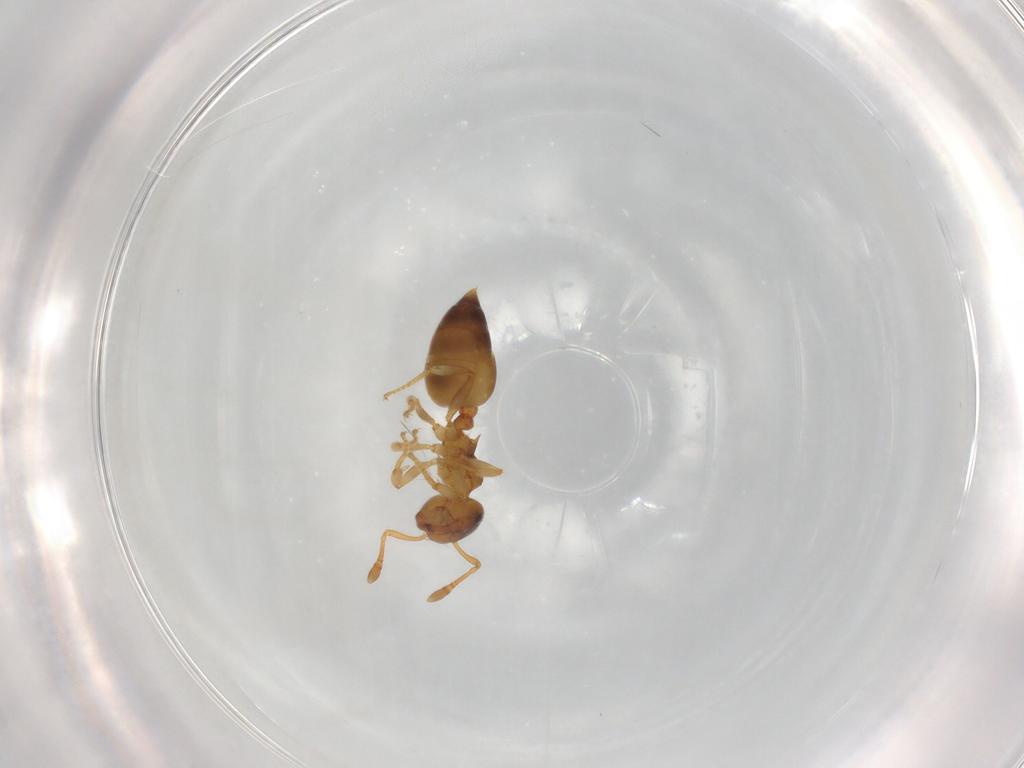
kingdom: Animalia
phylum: Arthropoda
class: Insecta
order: Hymenoptera
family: Formicidae
